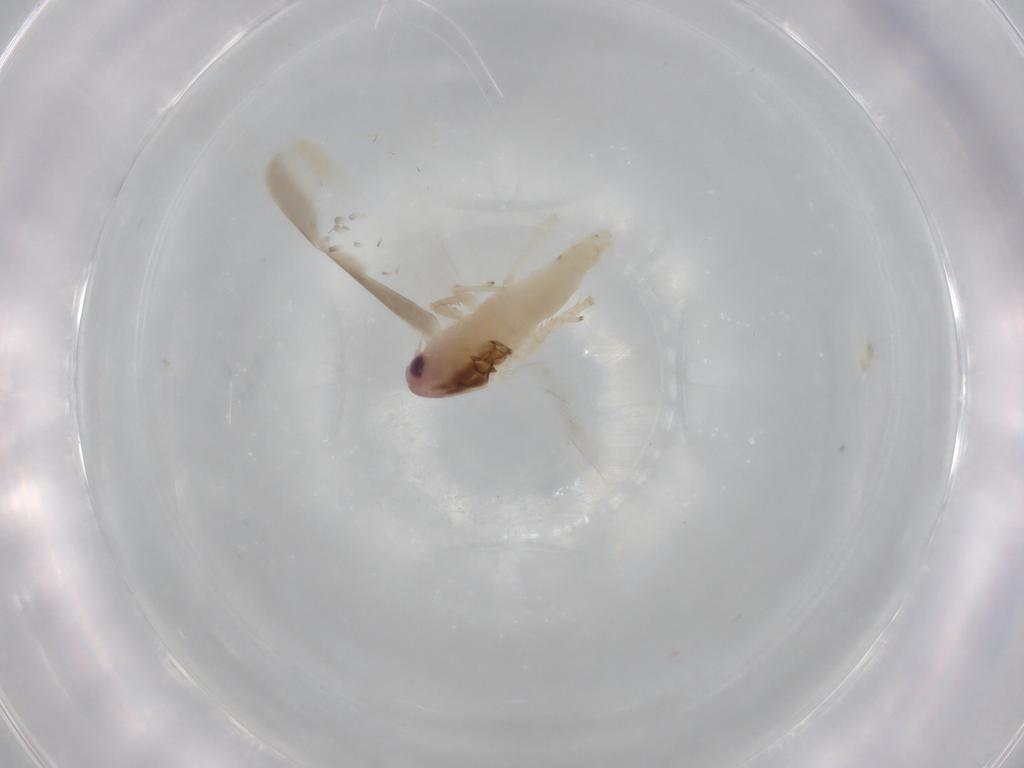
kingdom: Animalia
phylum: Arthropoda
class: Insecta
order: Hemiptera
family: Cicadellidae
